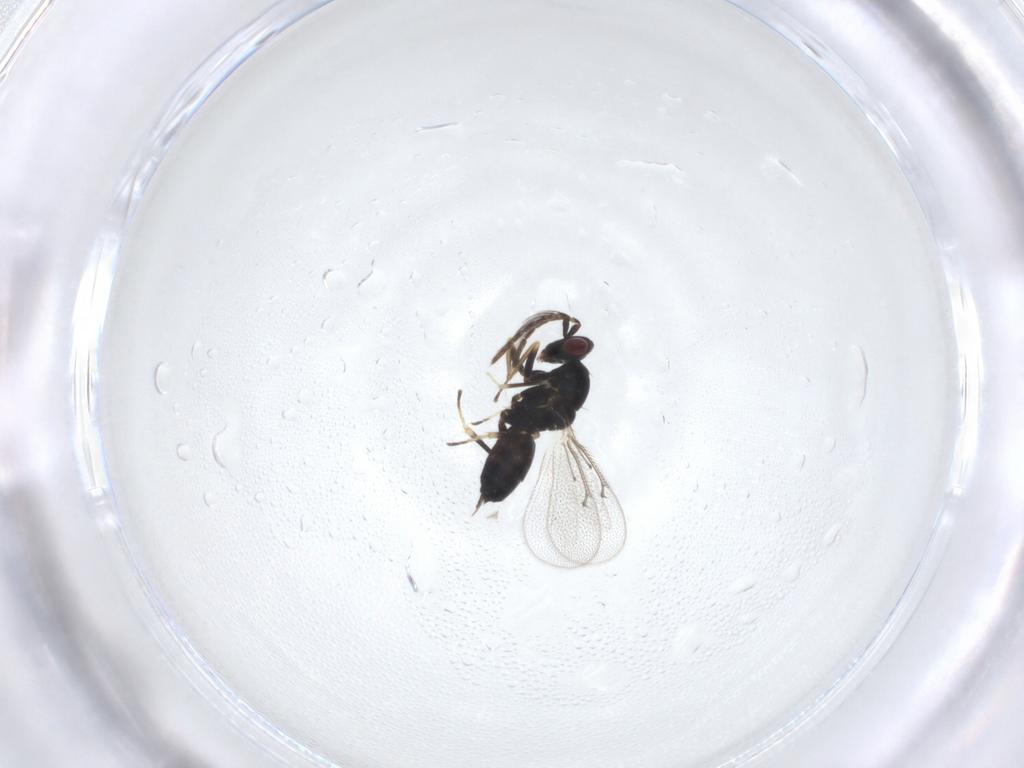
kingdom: Animalia
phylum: Arthropoda
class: Insecta
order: Hymenoptera
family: Eulophidae
